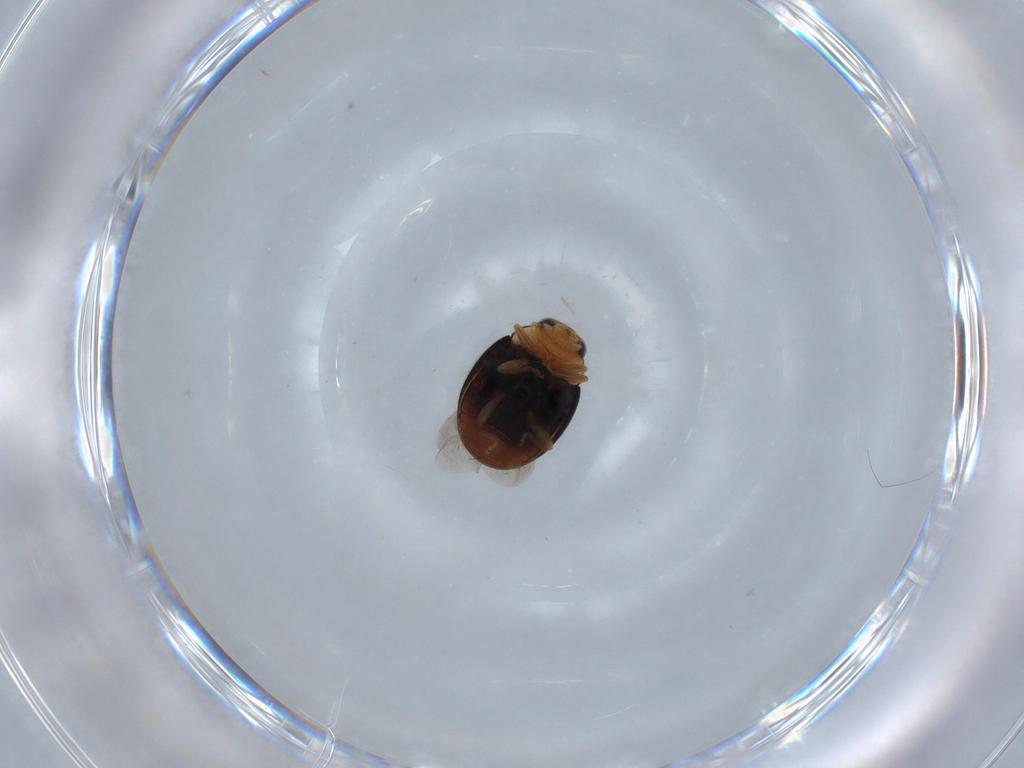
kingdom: Animalia
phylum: Arthropoda
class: Insecta
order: Coleoptera
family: Coccinellidae
